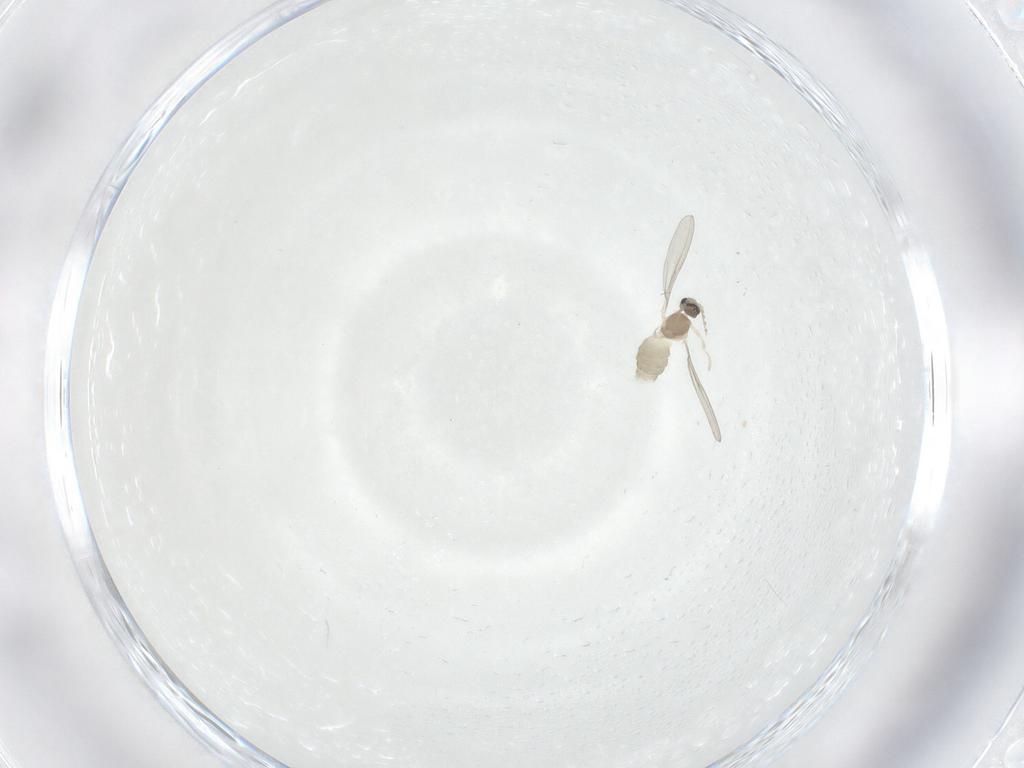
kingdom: Animalia
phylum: Arthropoda
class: Insecta
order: Diptera
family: Cecidomyiidae
